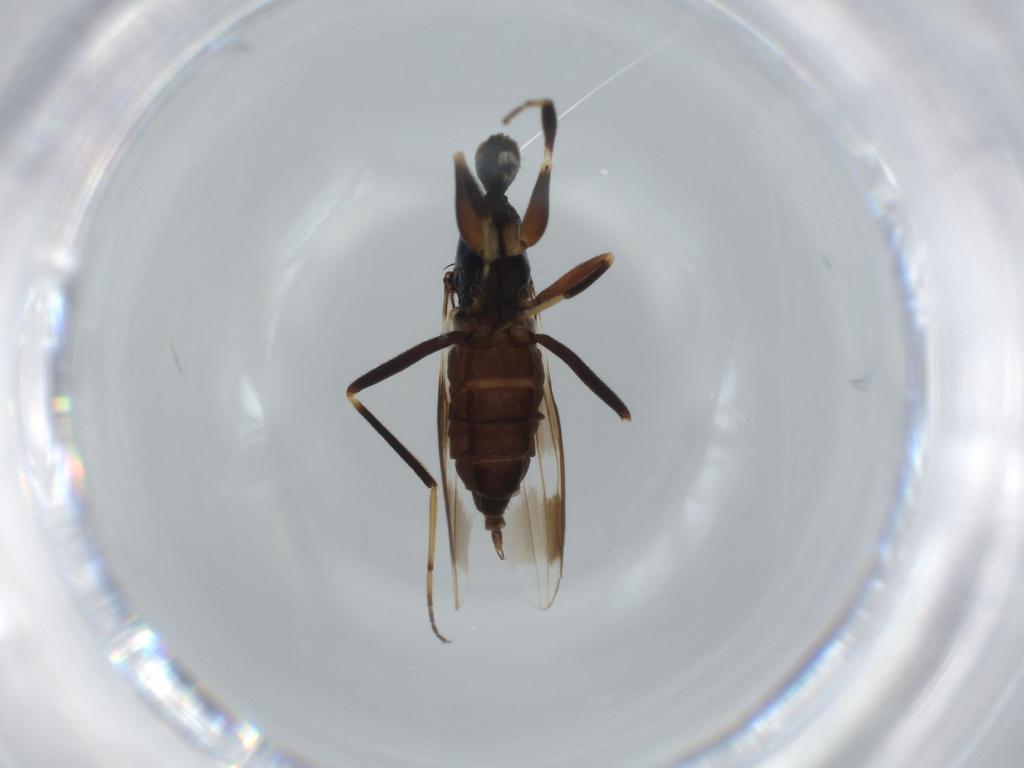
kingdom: Animalia
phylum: Arthropoda
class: Insecta
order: Diptera
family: Hybotidae
